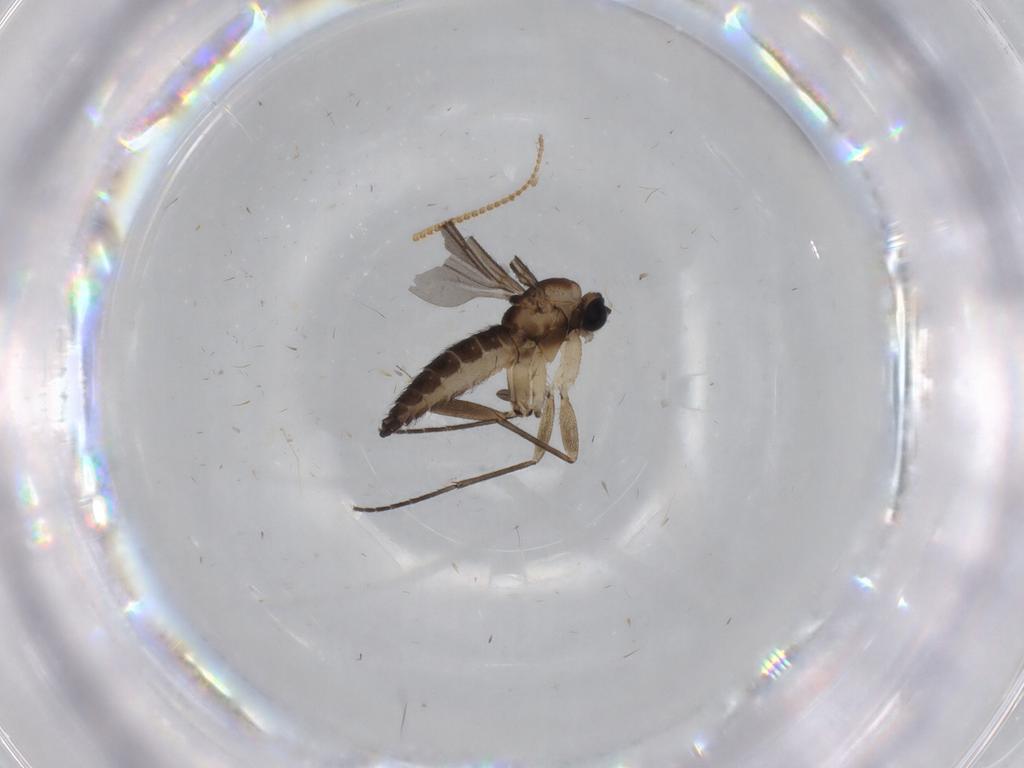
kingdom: Animalia
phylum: Arthropoda
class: Insecta
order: Diptera
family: Sciaridae
